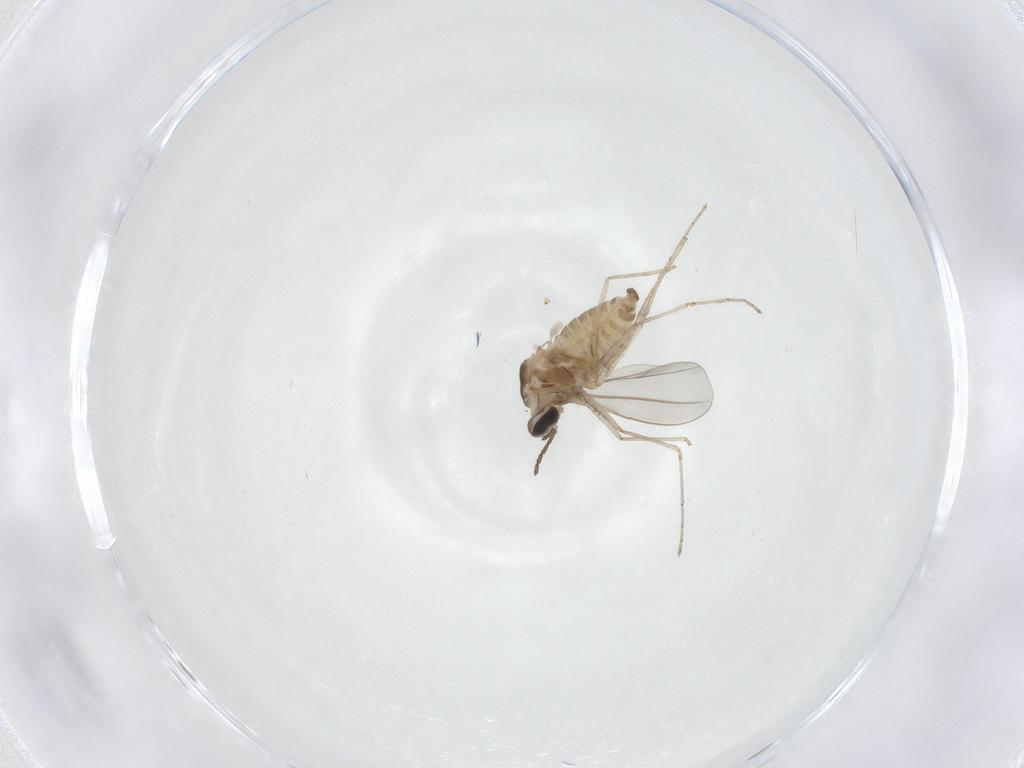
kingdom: Animalia
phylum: Arthropoda
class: Insecta
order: Diptera
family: Cecidomyiidae
